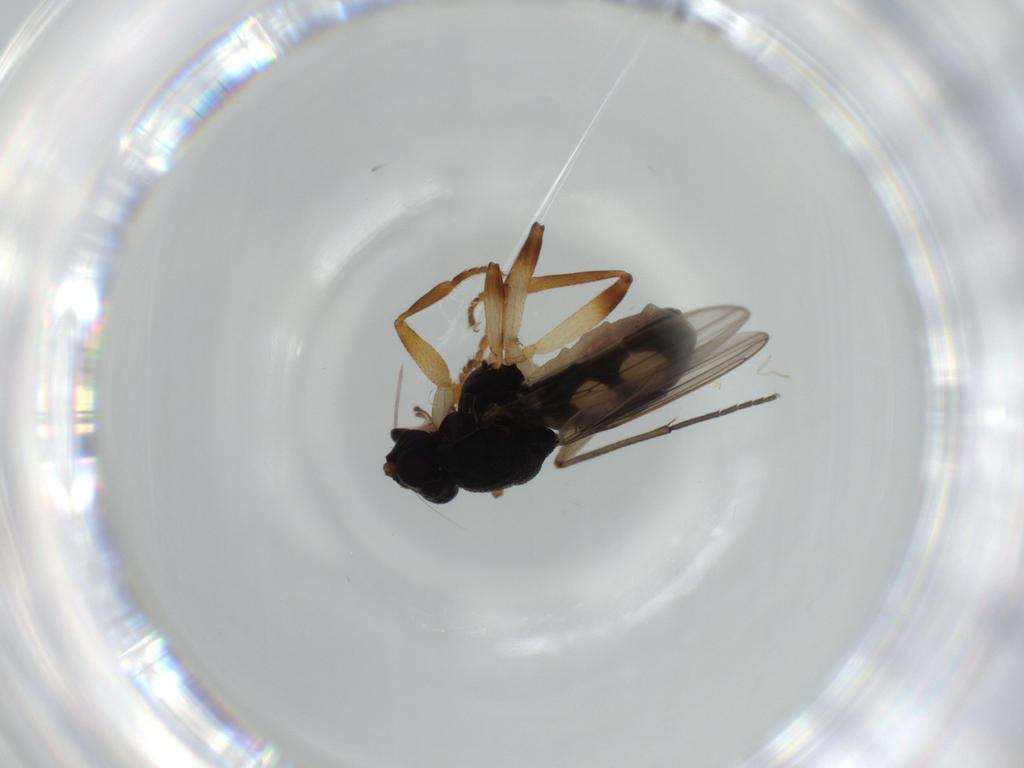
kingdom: Animalia
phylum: Arthropoda
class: Insecta
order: Diptera
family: Sphaeroceridae
